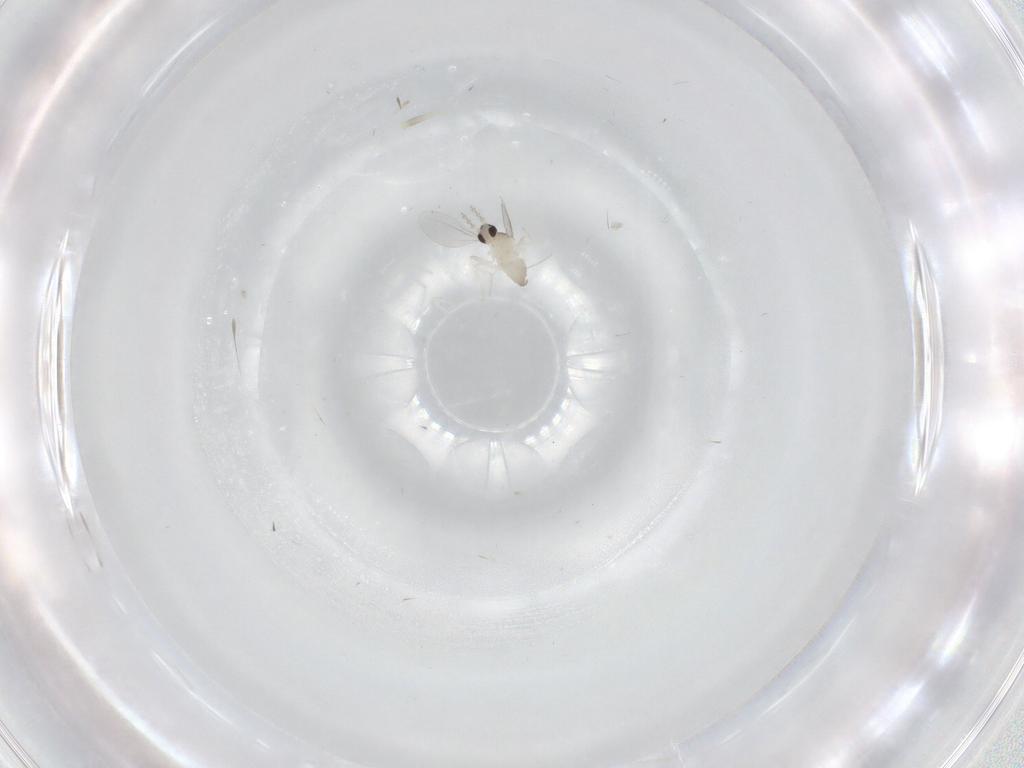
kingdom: Animalia
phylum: Arthropoda
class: Insecta
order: Diptera
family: Cecidomyiidae
